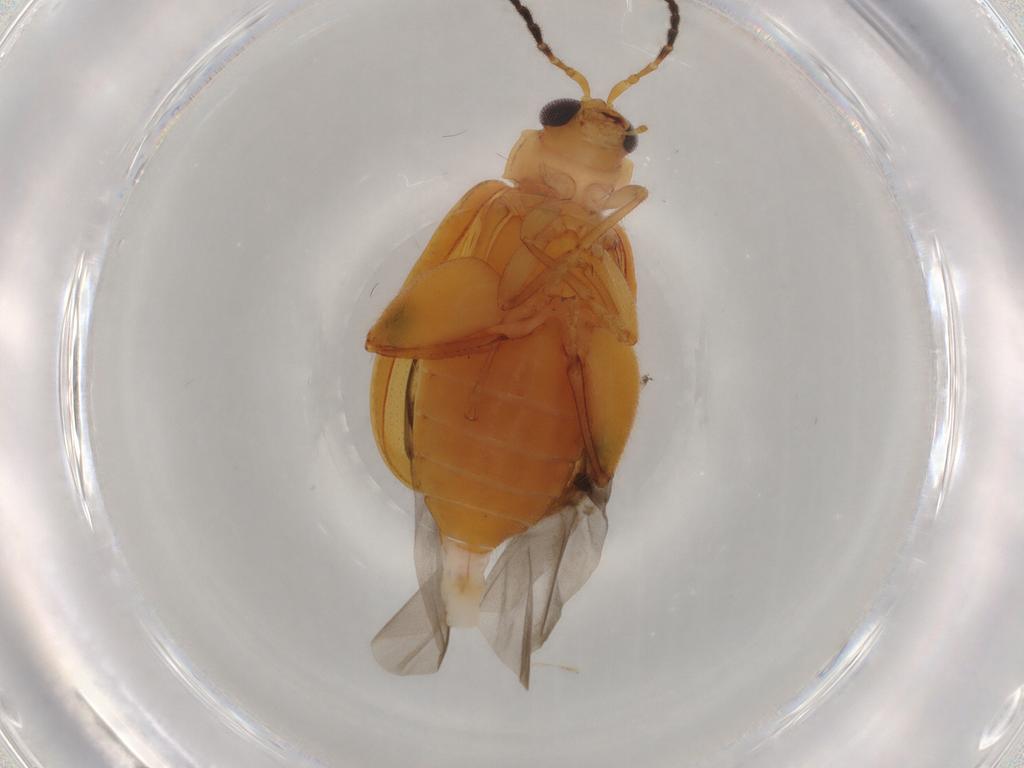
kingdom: Animalia
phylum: Arthropoda
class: Insecta
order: Coleoptera
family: Chrysomelidae
